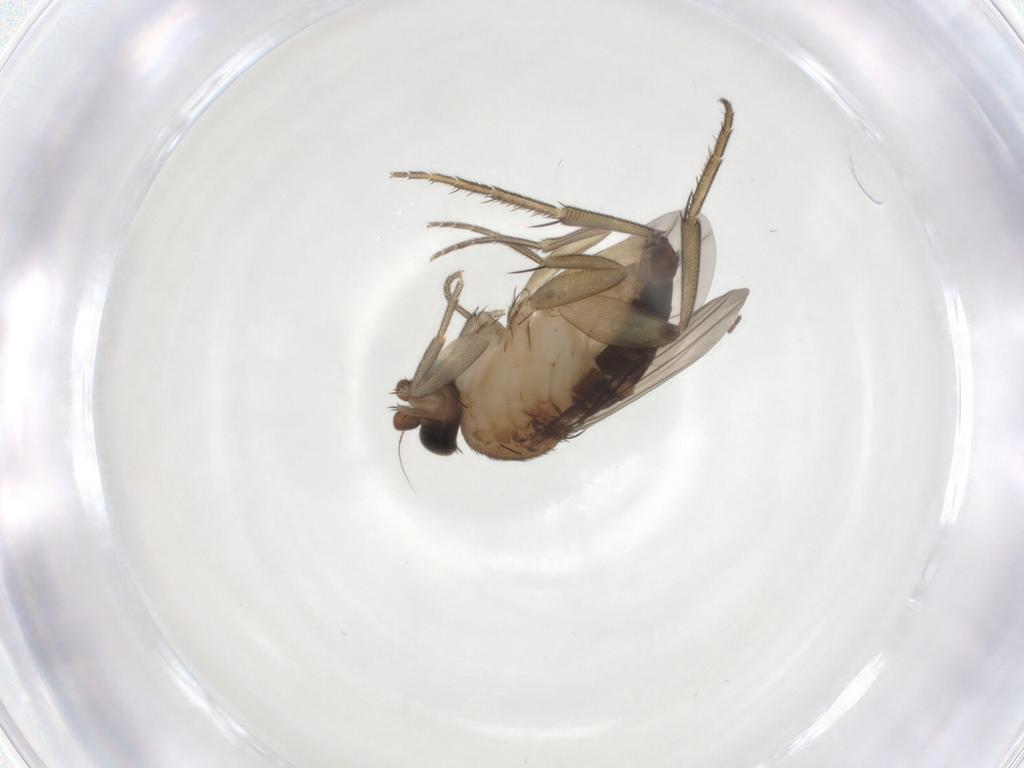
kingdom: Animalia
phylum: Arthropoda
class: Insecta
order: Diptera
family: Phoridae
